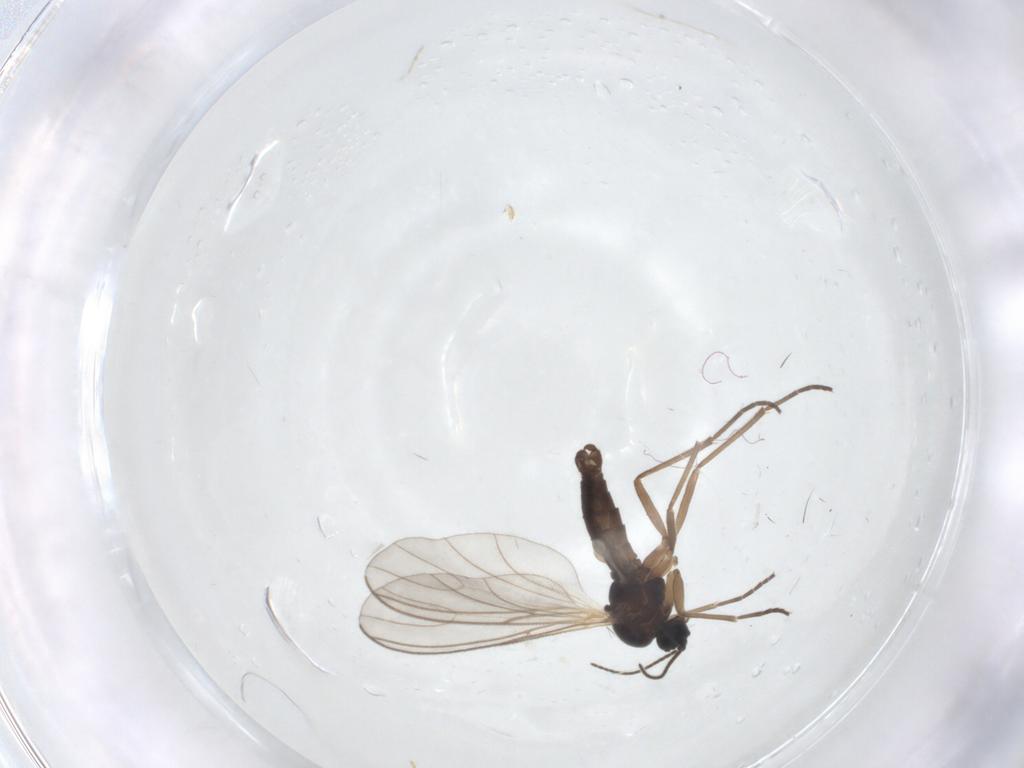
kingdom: Animalia
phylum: Arthropoda
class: Insecta
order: Diptera
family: Sciaridae
